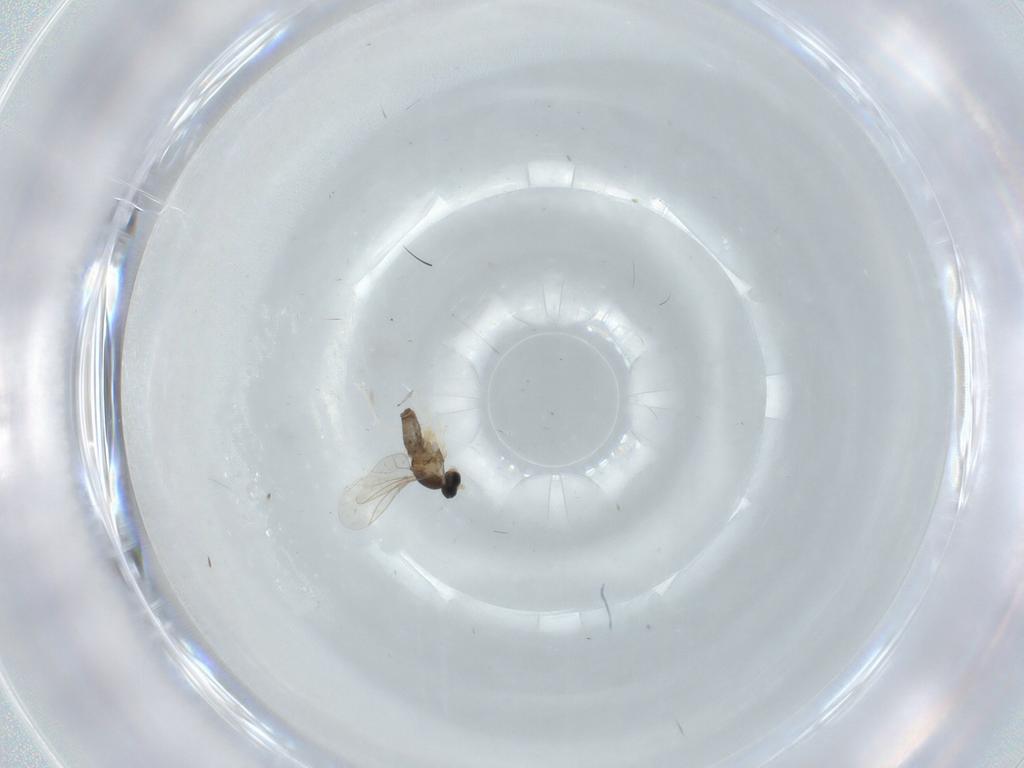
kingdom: Animalia
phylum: Arthropoda
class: Insecta
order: Diptera
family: Cecidomyiidae
